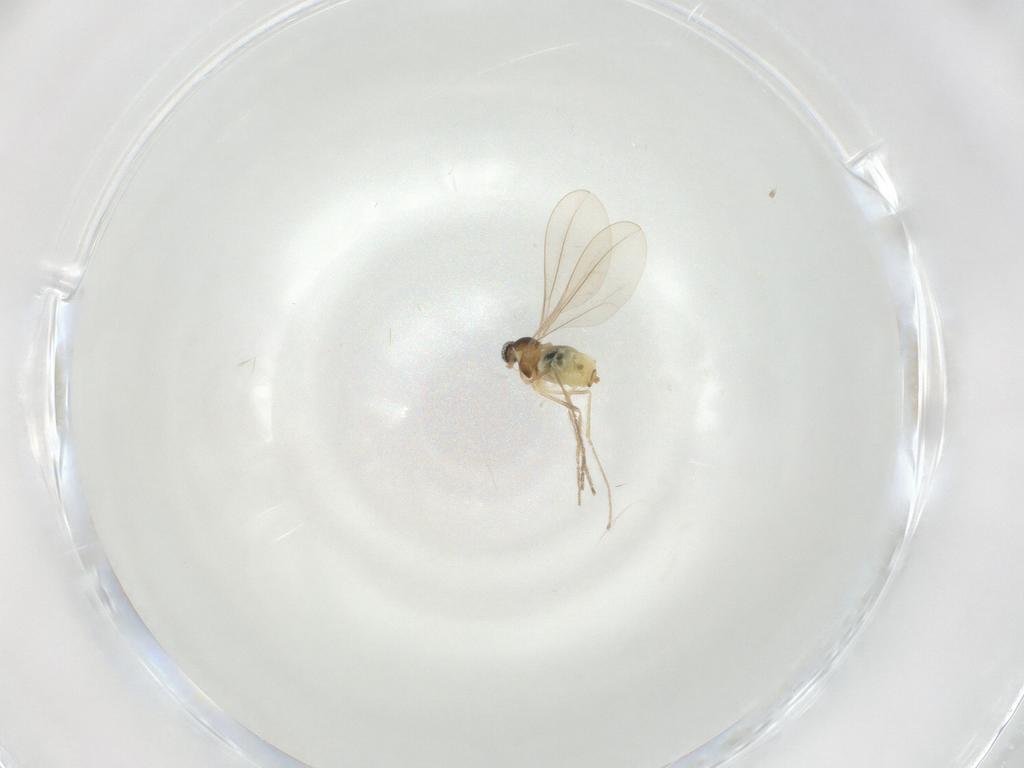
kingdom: Animalia
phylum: Arthropoda
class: Insecta
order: Diptera
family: Cecidomyiidae
